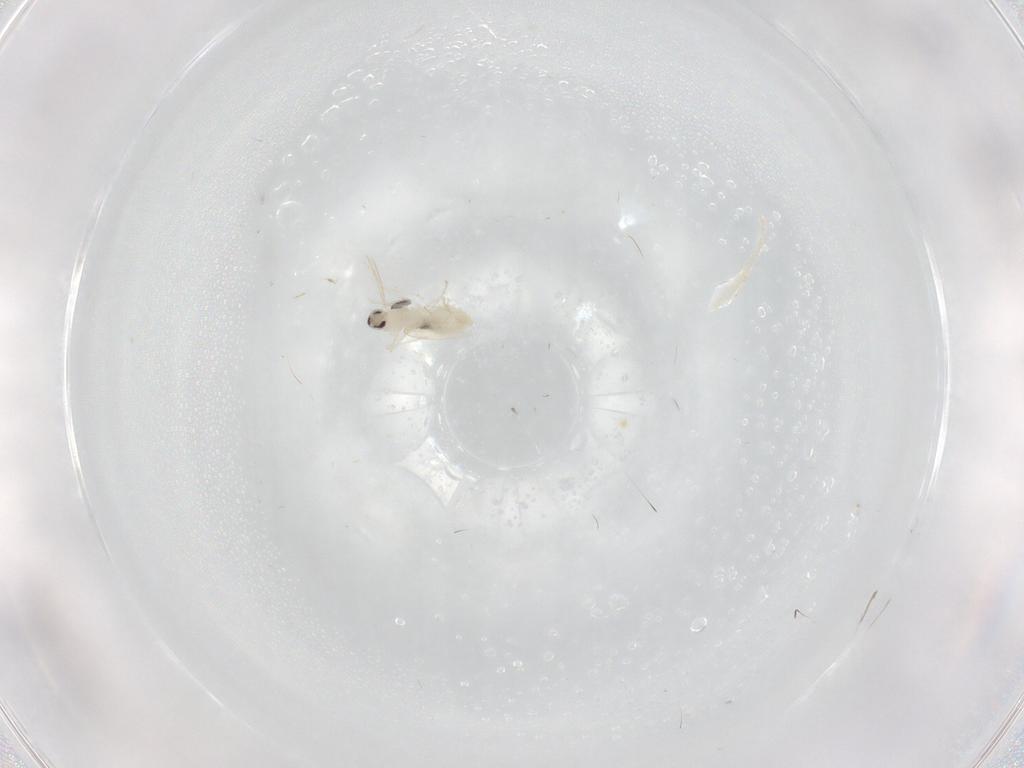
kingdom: Animalia
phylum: Arthropoda
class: Insecta
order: Diptera
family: Cecidomyiidae
